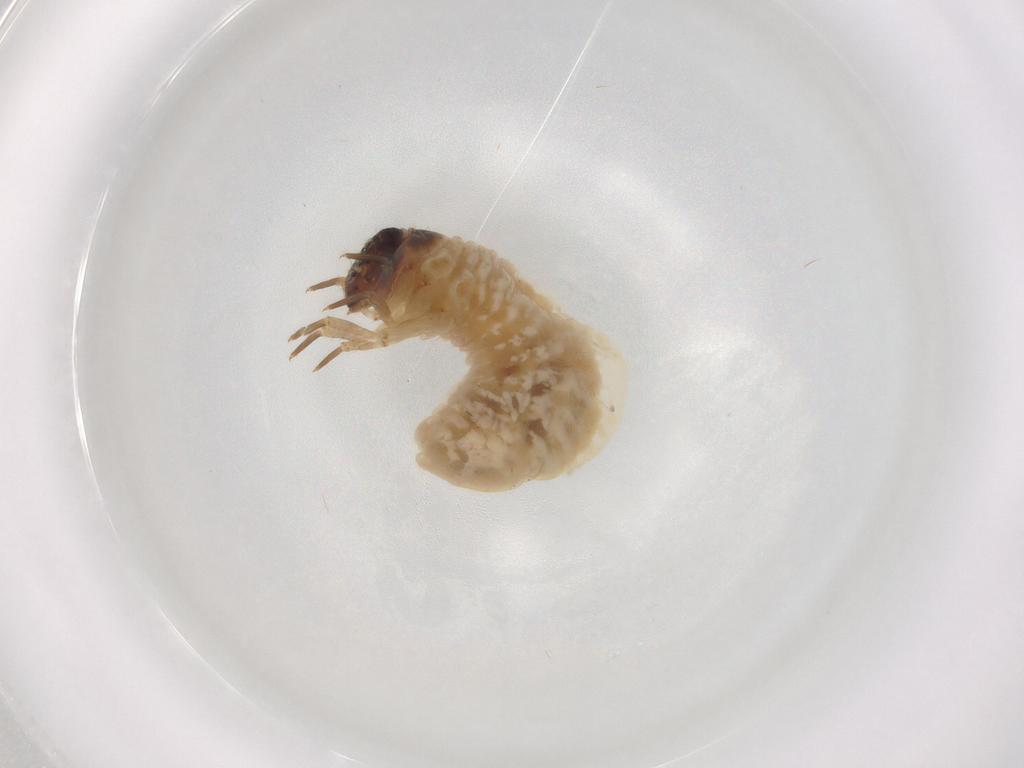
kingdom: Animalia
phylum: Arthropoda
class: Insecta
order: Coleoptera
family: Chrysomelidae
